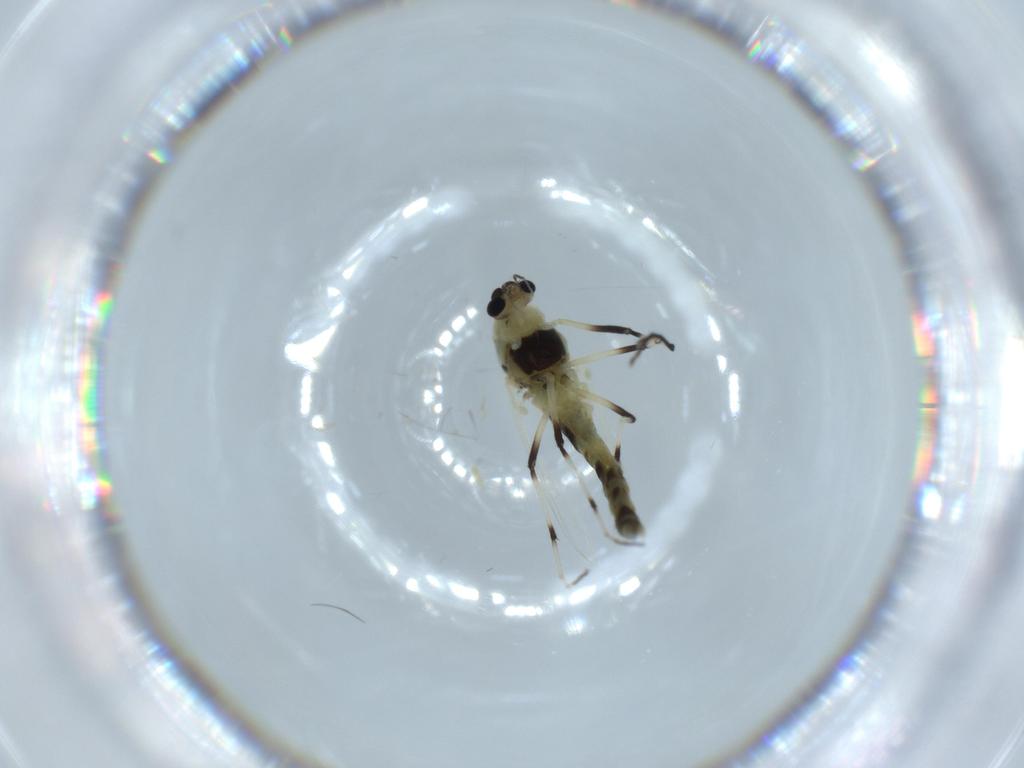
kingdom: Animalia
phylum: Arthropoda
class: Insecta
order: Diptera
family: Chironomidae
